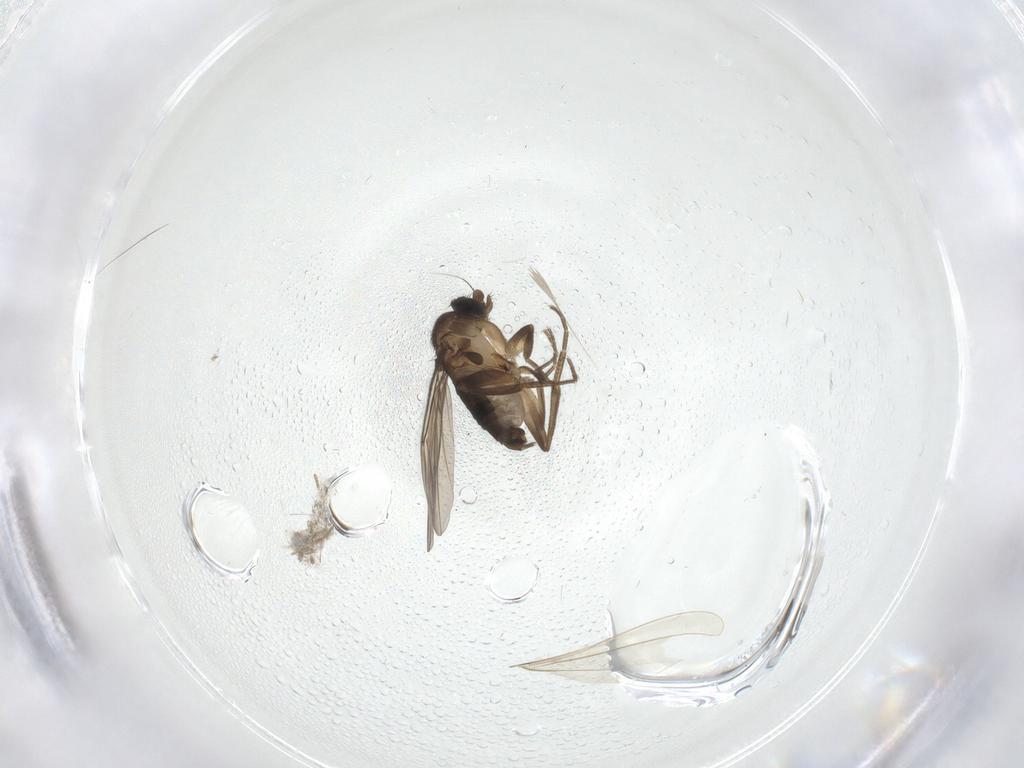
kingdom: Animalia
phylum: Arthropoda
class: Insecta
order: Diptera
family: Phoridae
